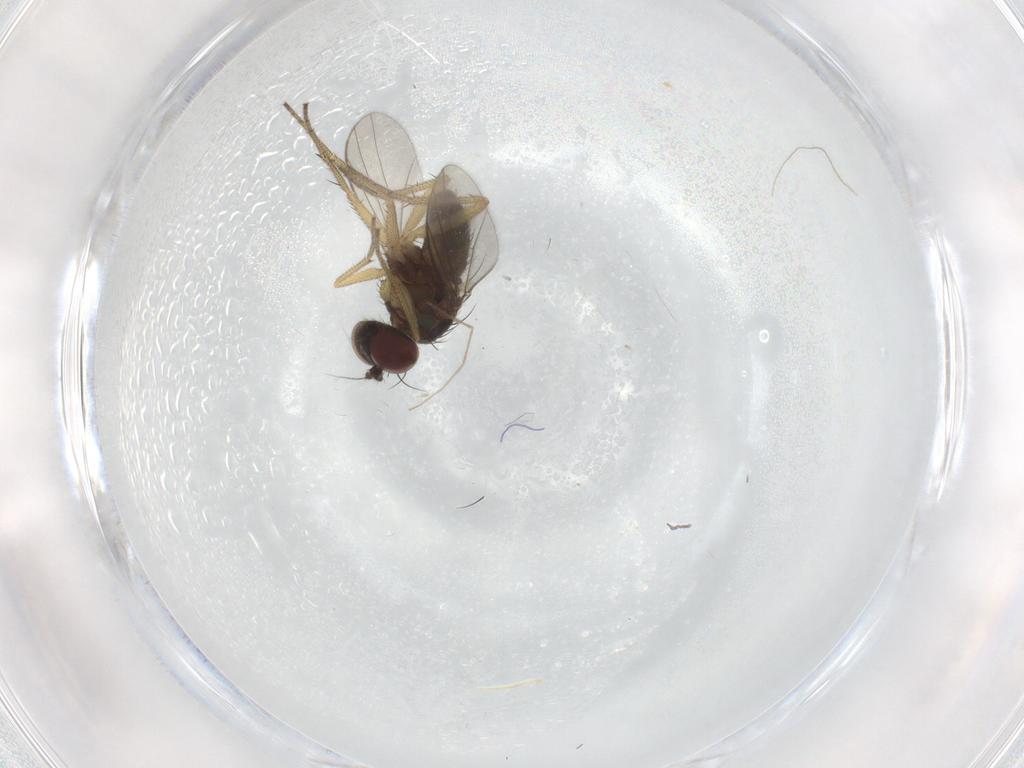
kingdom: Animalia
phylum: Arthropoda
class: Insecta
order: Diptera
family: Dolichopodidae
